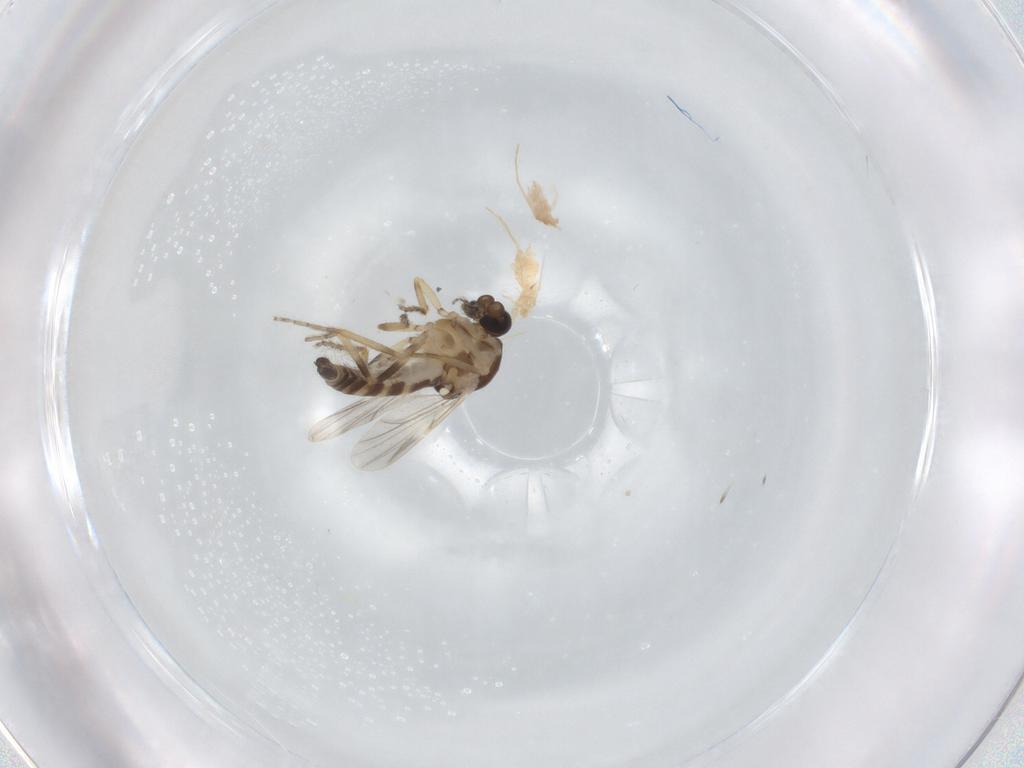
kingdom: Animalia
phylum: Arthropoda
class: Insecta
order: Diptera
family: Ceratopogonidae
